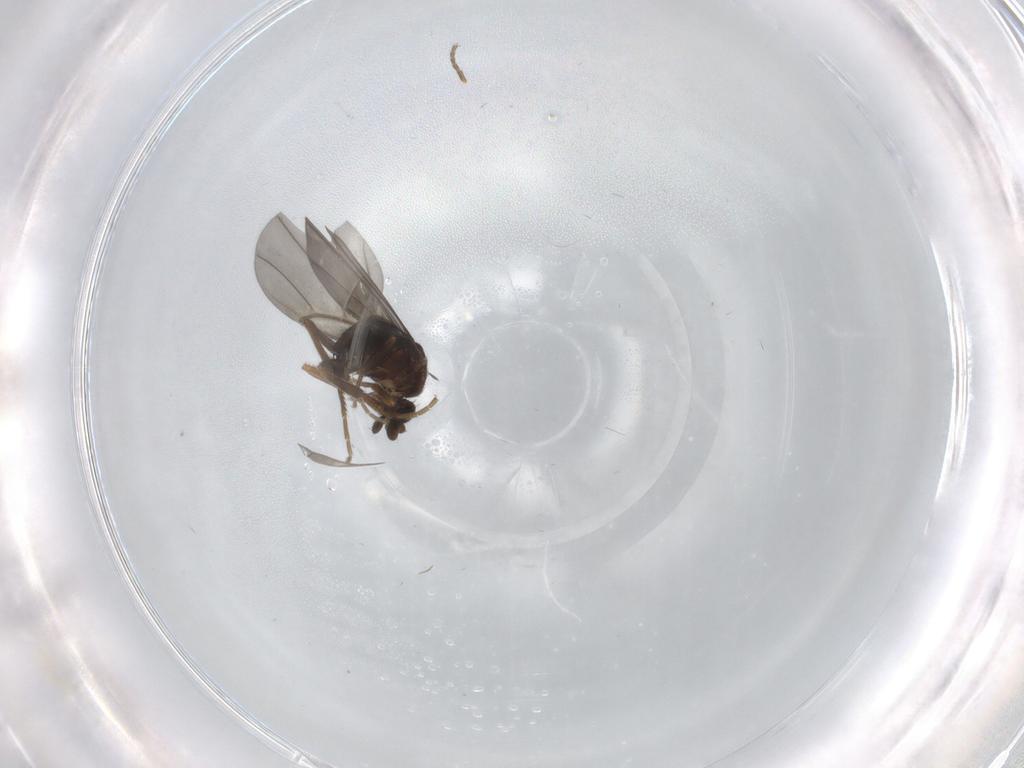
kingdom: Animalia
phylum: Arthropoda
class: Insecta
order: Diptera
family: Phoridae
